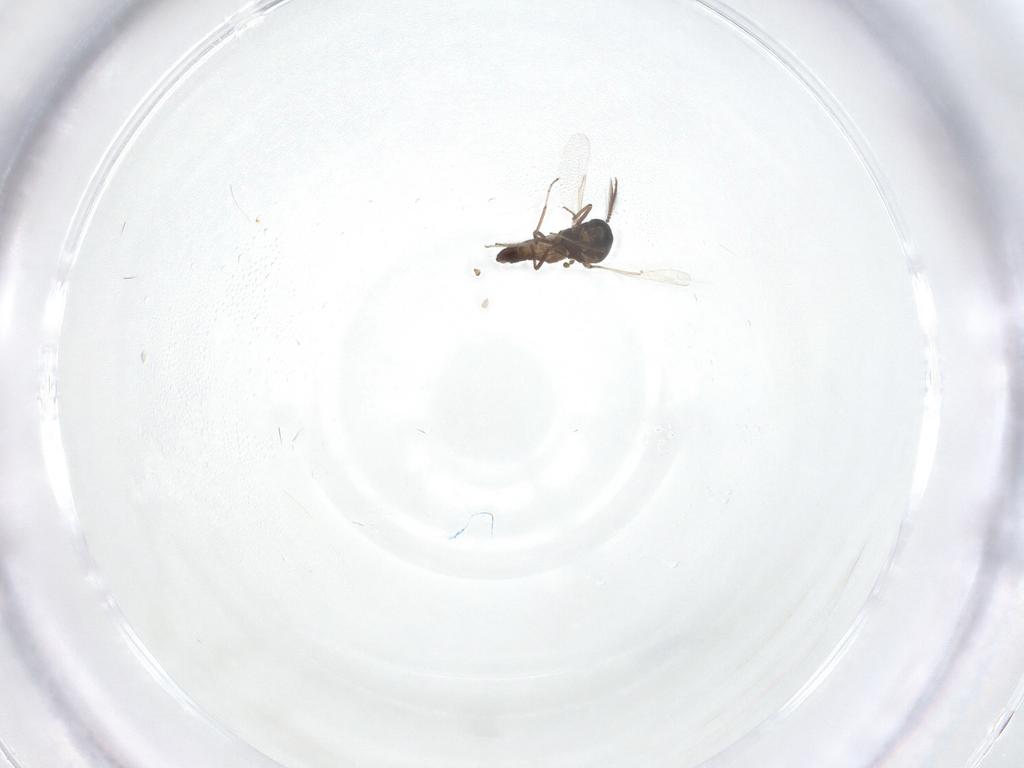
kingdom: Animalia
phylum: Arthropoda
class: Insecta
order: Diptera
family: Ceratopogonidae
